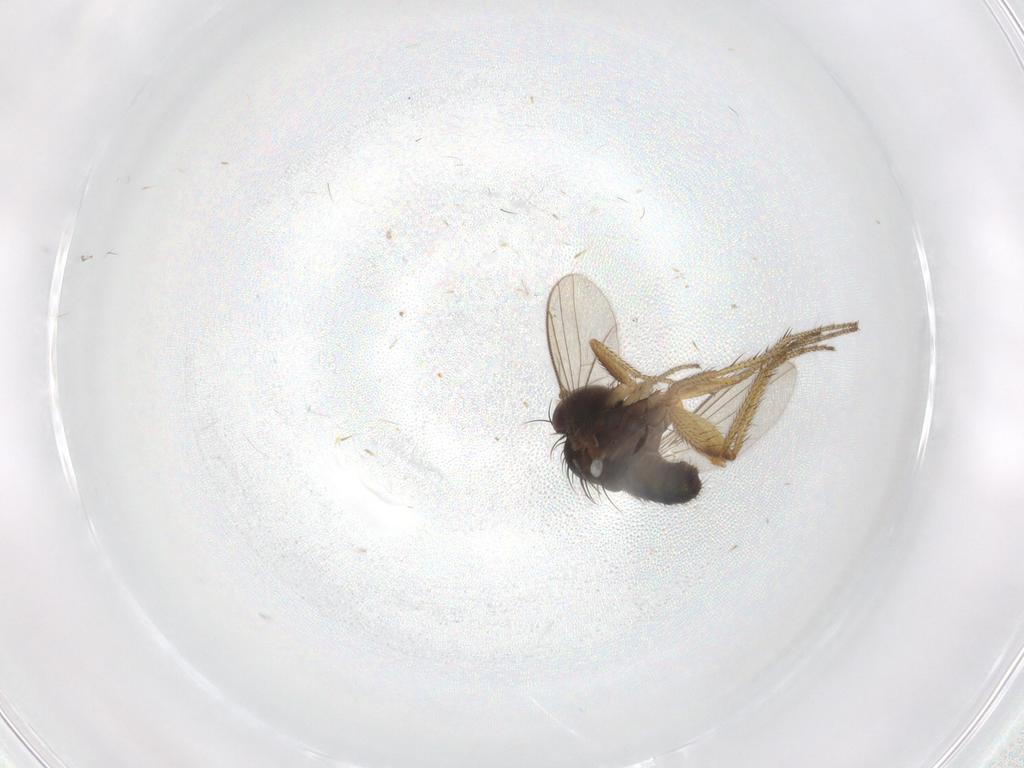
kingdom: Animalia
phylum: Arthropoda
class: Insecta
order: Diptera
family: Dolichopodidae
